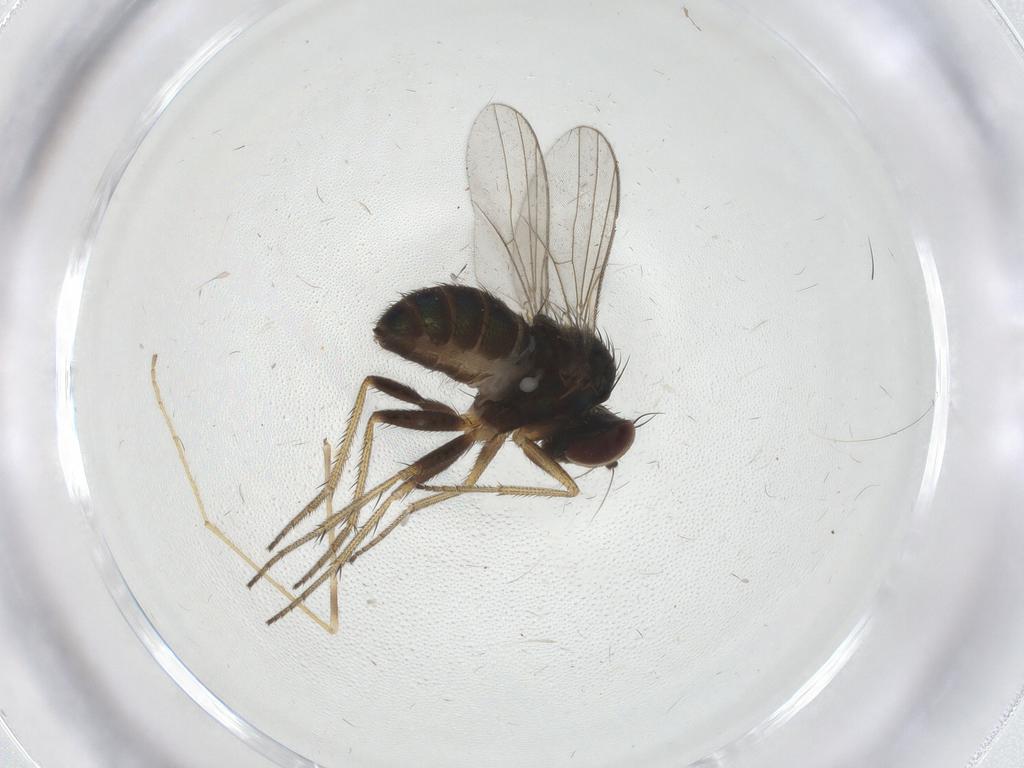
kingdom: Animalia
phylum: Arthropoda
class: Insecta
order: Diptera
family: Dolichopodidae
